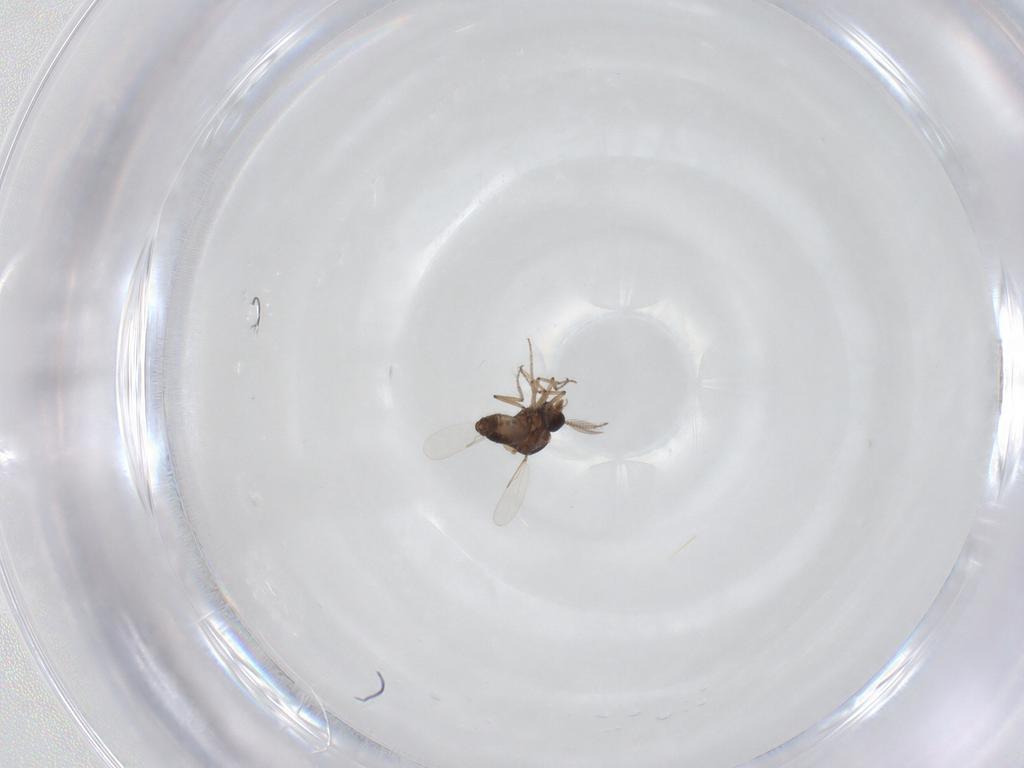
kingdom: Animalia
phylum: Arthropoda
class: Insecta
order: Diptera
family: Ceratopogonidae
